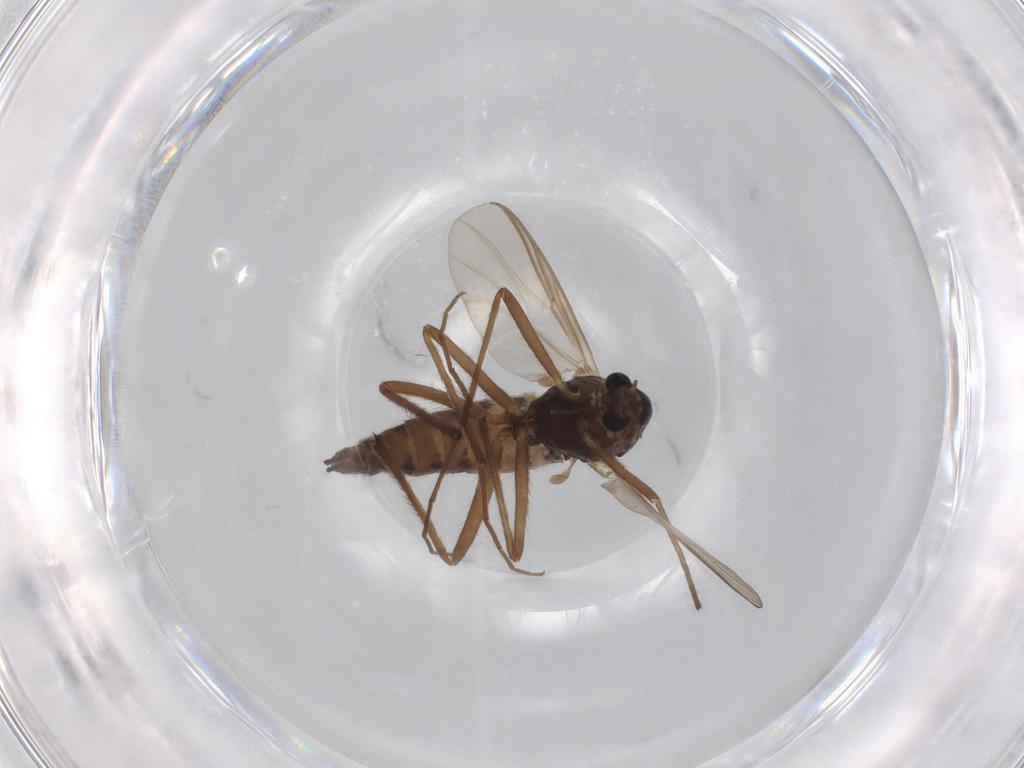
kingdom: Animalia
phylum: Arthropoda
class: Insecta
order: Diptera
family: Chironomidae
